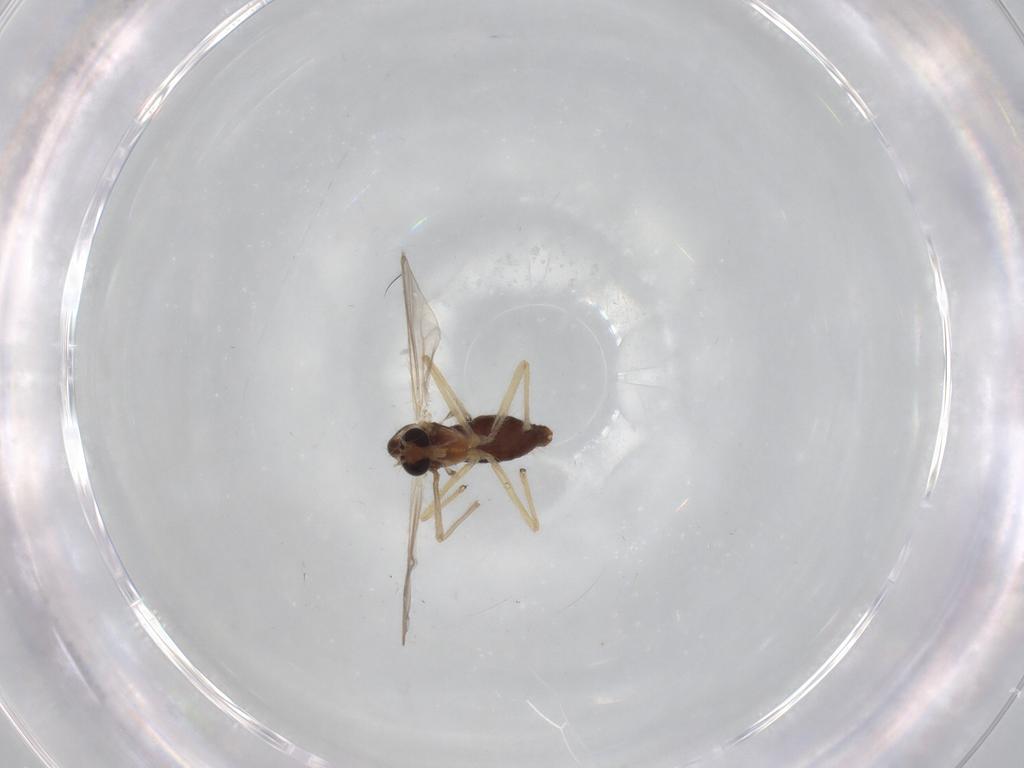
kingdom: Animalia
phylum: Arthropoda
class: Insecta
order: Diptera
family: Chironomidae
